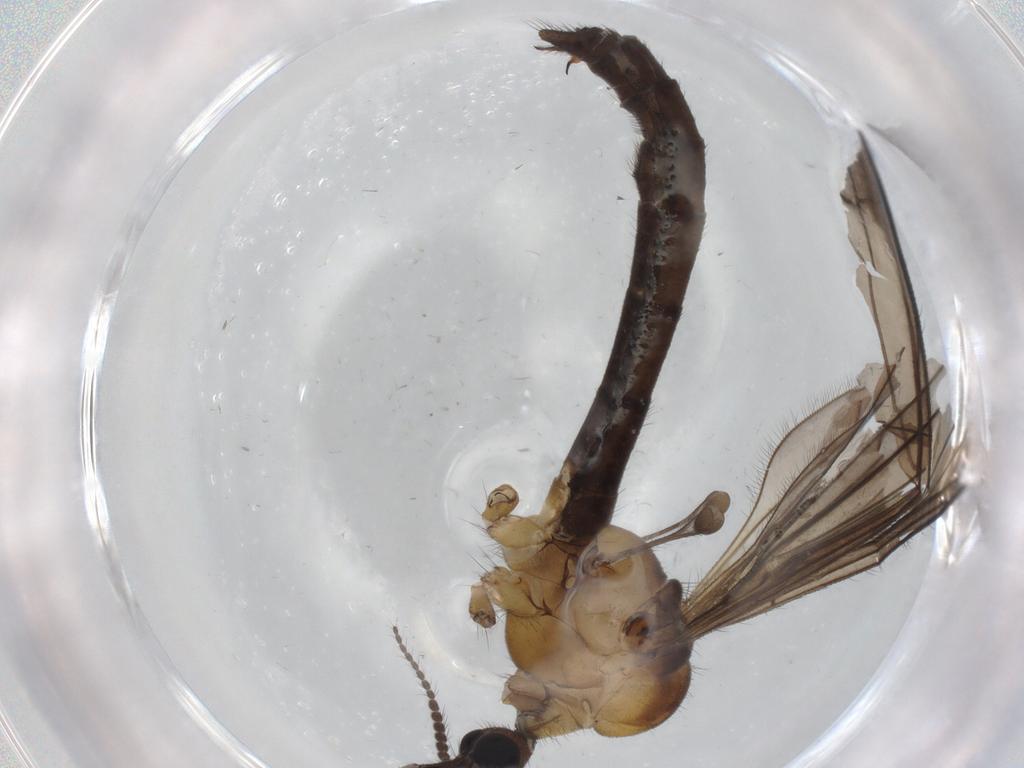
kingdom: Animalia
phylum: Arthropoda
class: Insecta
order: Diptera
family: Limoniidae
